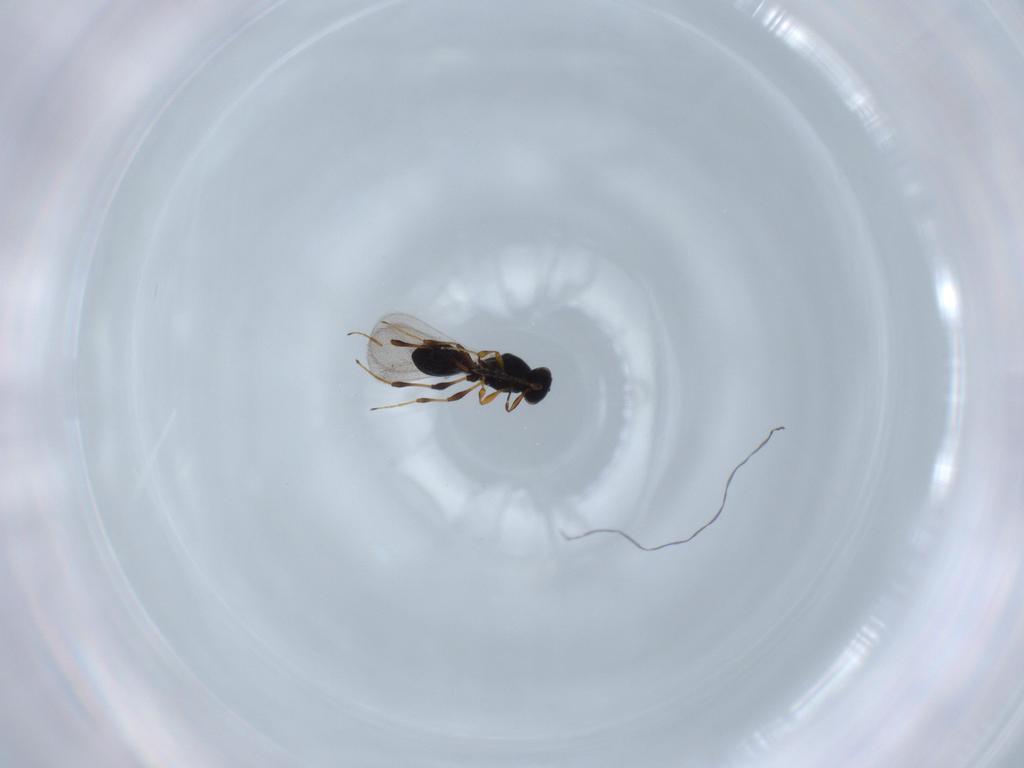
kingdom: Animalia
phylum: Arthropoda
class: Insecta
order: Hymenoptera
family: Platygastridae
